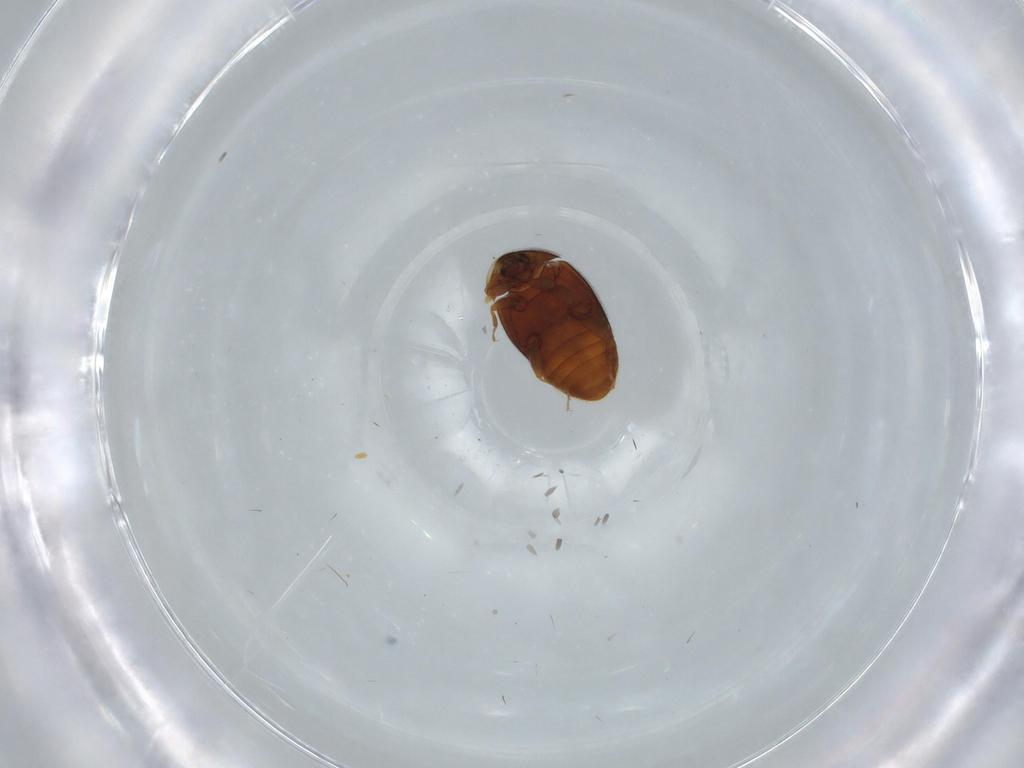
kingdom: Animalia
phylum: Arthropoda
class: Insecta
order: Coleoptera
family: Corylophidae
